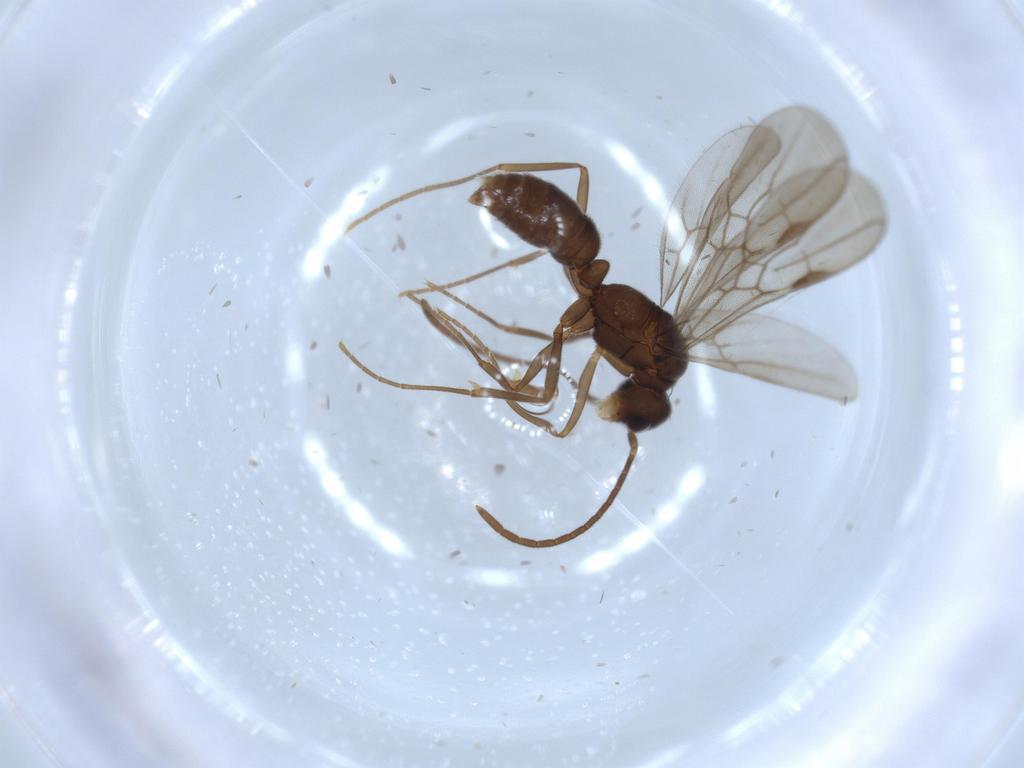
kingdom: Animalia
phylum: Arthropoda
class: Insecta
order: Hymenoptera
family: Formicidae
